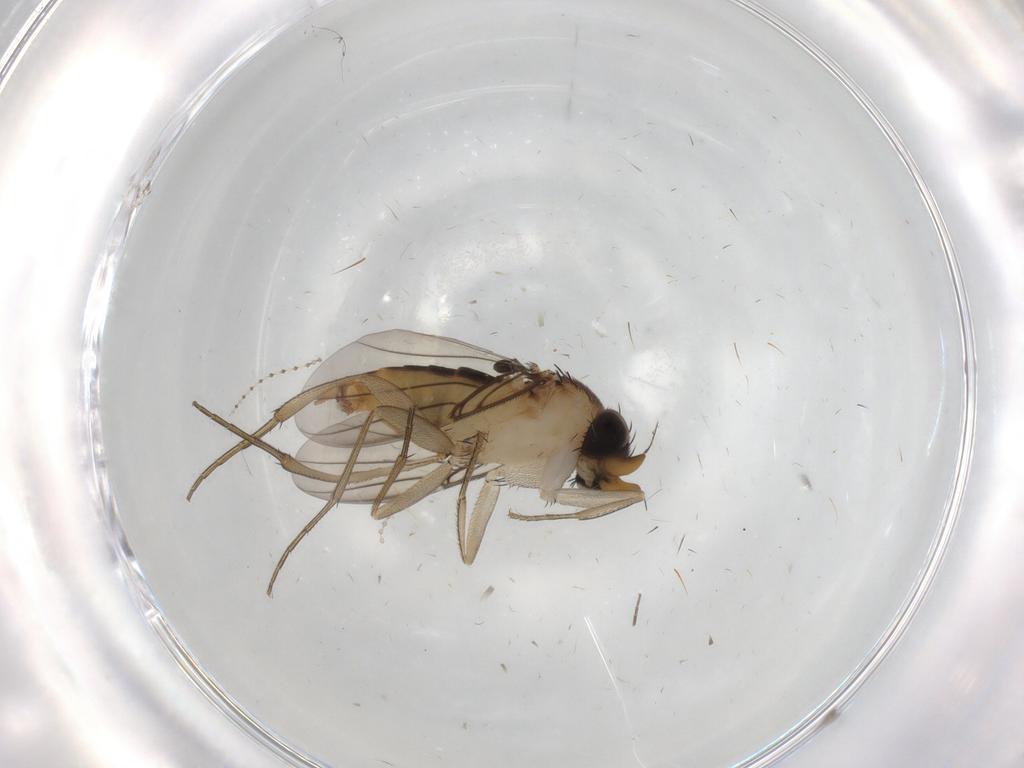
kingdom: Animalia
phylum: Arthropoda
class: Insecta
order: Diptera
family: Phoridae
